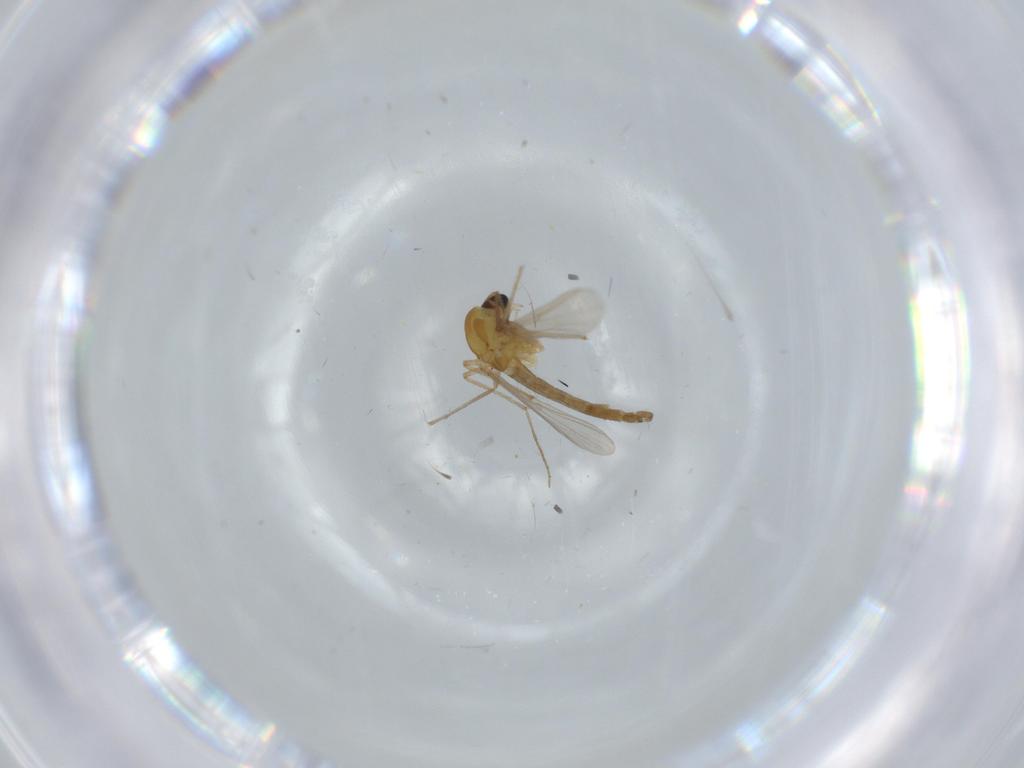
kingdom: Animalia
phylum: Arthropoda
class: Insecta
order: Diptera
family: Chironomidae
